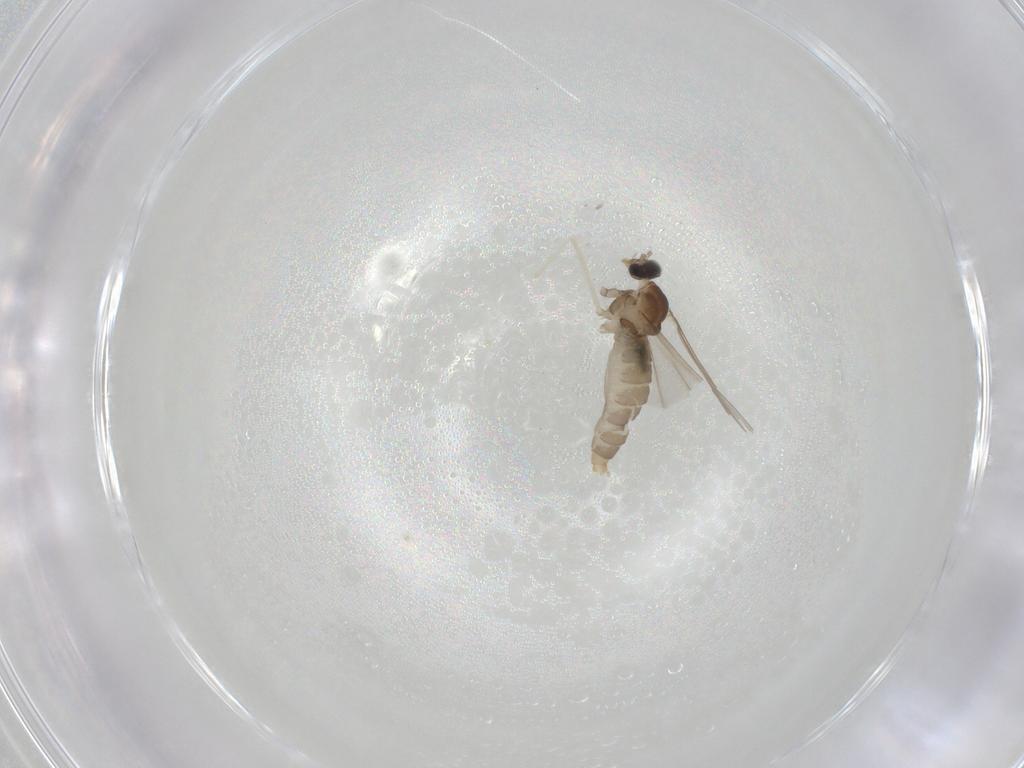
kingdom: Animalia
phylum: Arthropoda
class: Insecta
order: Diptera
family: Cecidomyiidae
